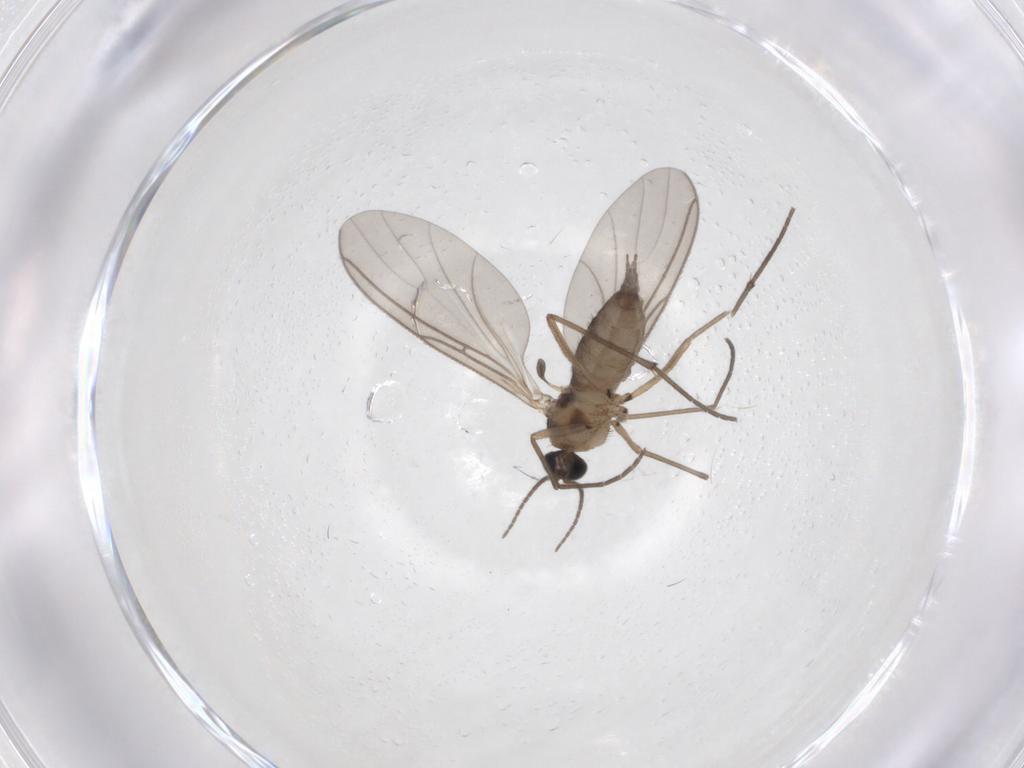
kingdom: Animalia
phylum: Arthropoda
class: Insecta
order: Diptera
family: Sciaridae
